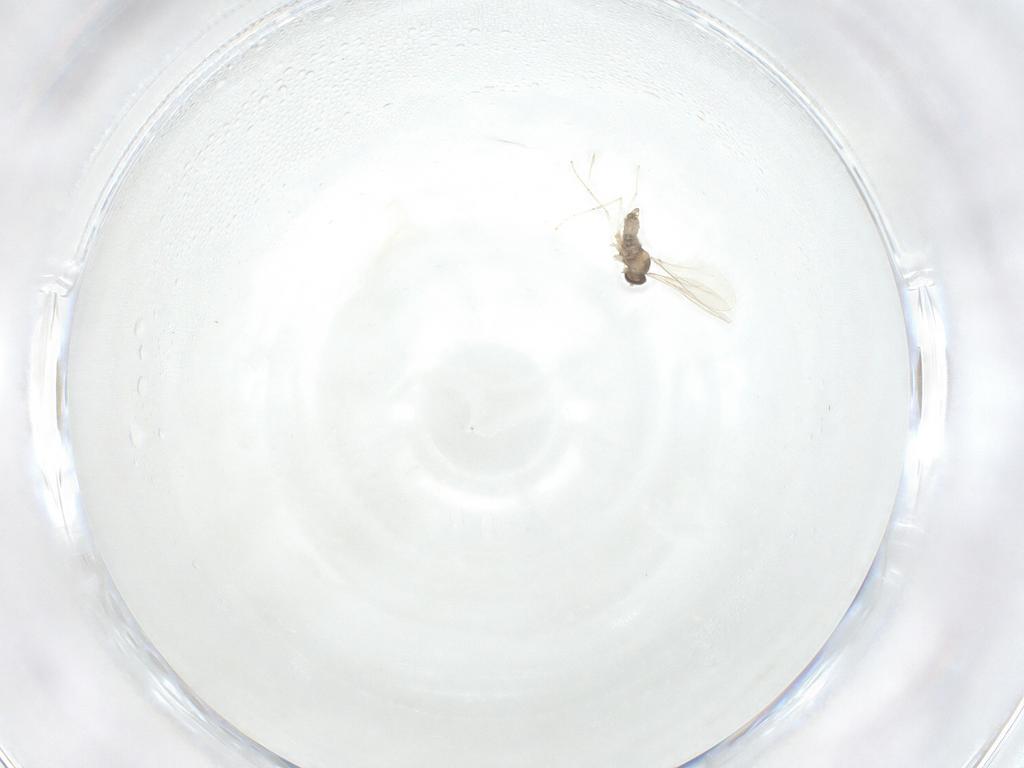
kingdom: Animalia
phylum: Arthropoda
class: Insecta
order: Diptera
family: Cecidomyiidae
